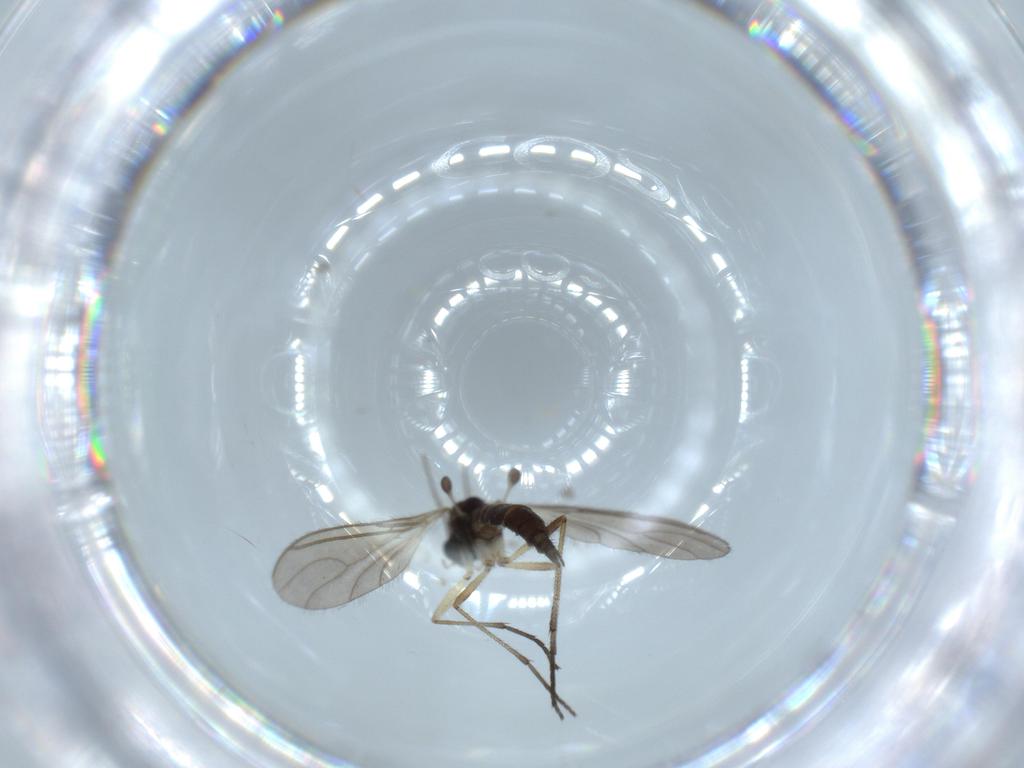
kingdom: Animalia
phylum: Arthropoda
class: Insecta
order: Diptera
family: Sciaridae
